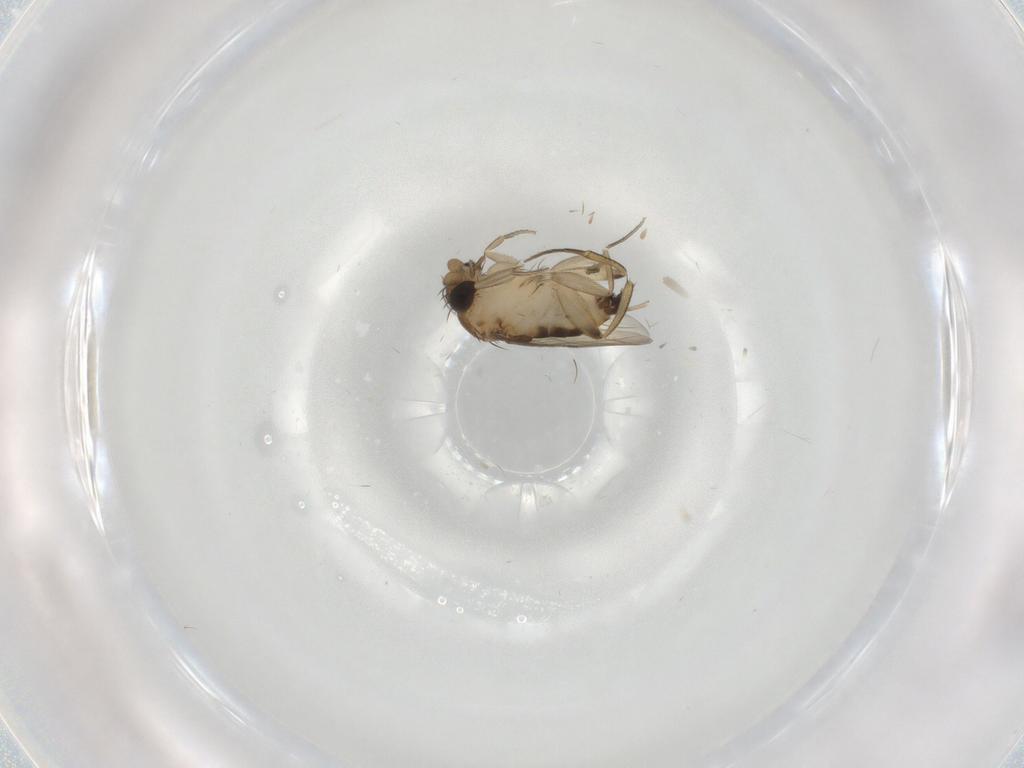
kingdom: Animalia
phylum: Arthropoda
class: Insecta
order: Diptera
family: Phoridae
